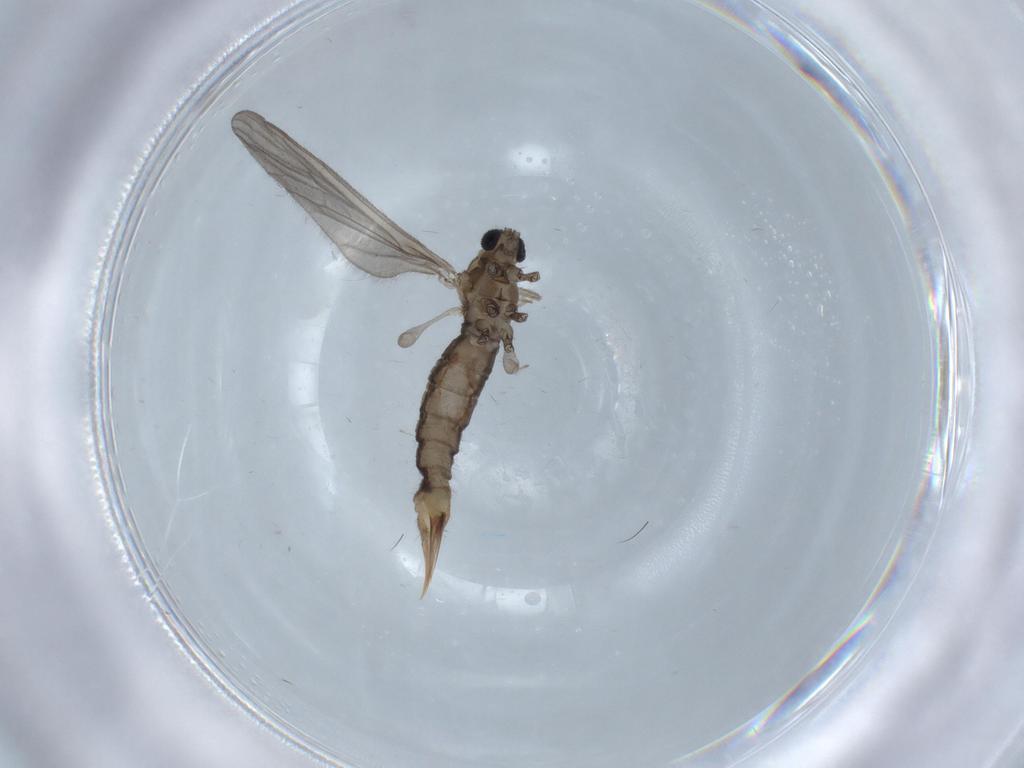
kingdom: Animalia
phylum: Arthropoda
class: Insecta
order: Diptera
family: Limoniidae
